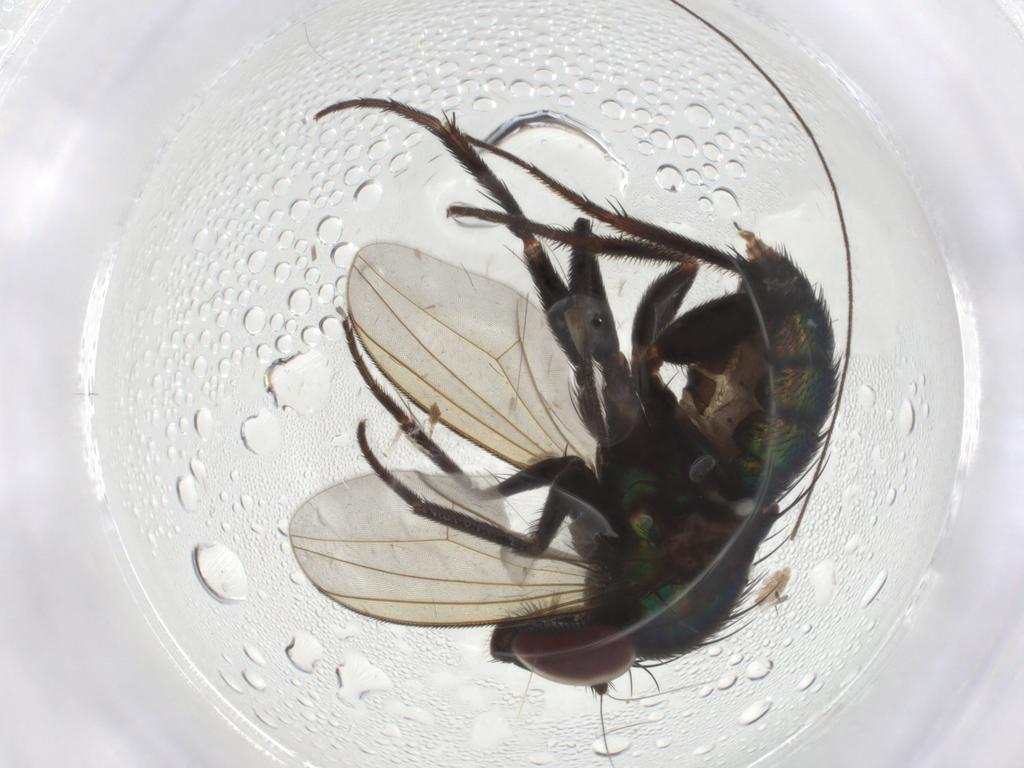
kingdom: Animalia
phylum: Arthropoda
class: Insecta
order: Diptera
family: Dolichopodidae
